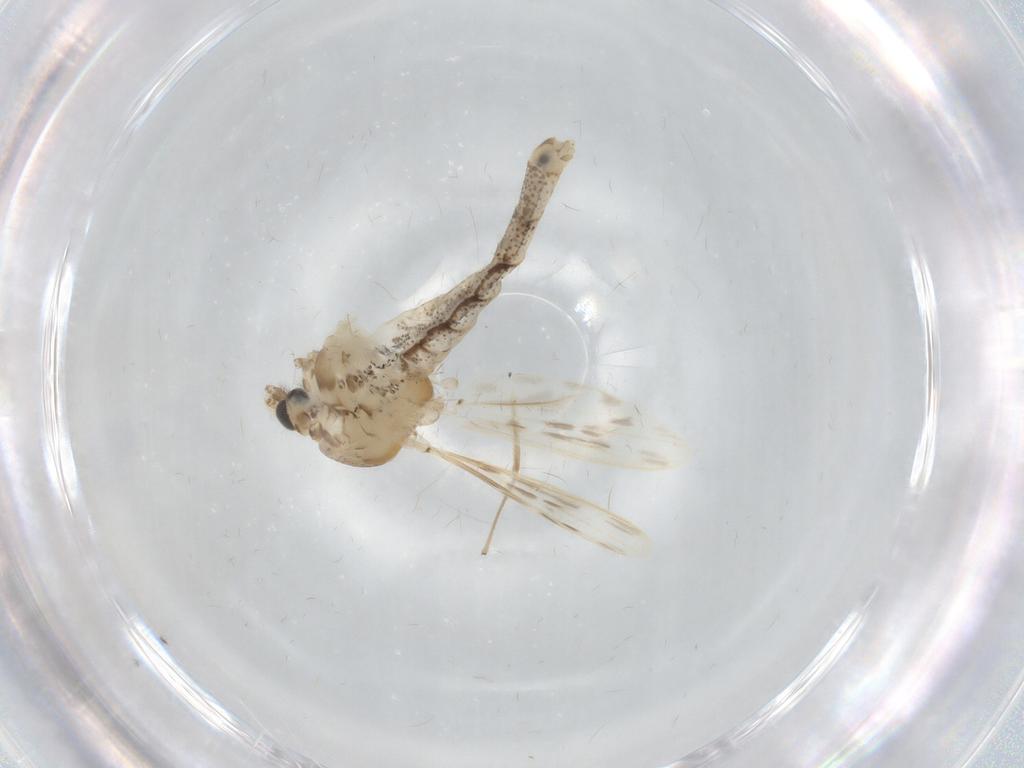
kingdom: Animalia
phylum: Arthropoda
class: Insecta
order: Diptera
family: Chaoboridae
